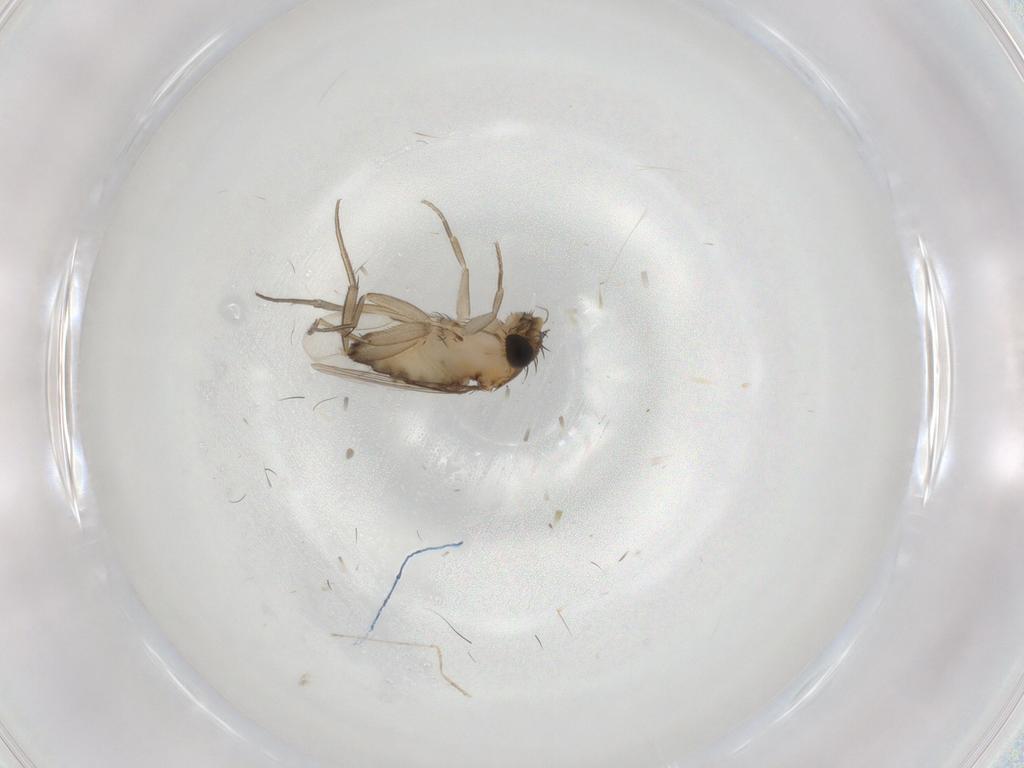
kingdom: Animalia
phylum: Arthropoda
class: Insecta
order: Diptera
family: Phoridae
